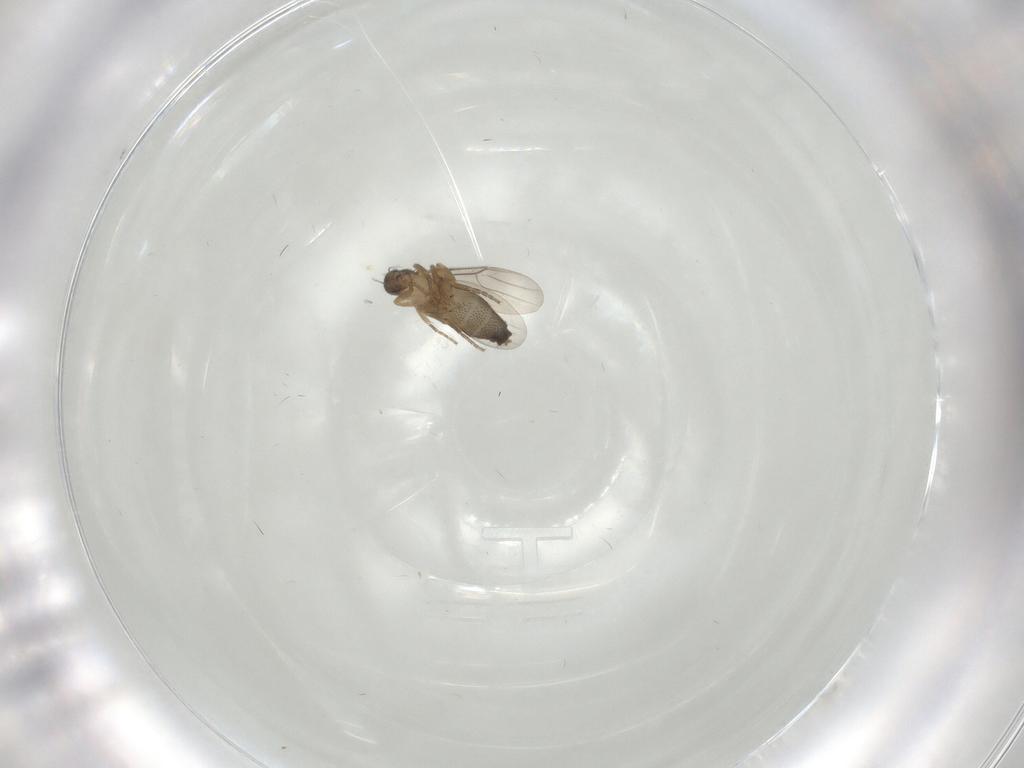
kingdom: Animalia
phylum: Arthropoda
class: Insecta
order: Diptera
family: Phoridae
